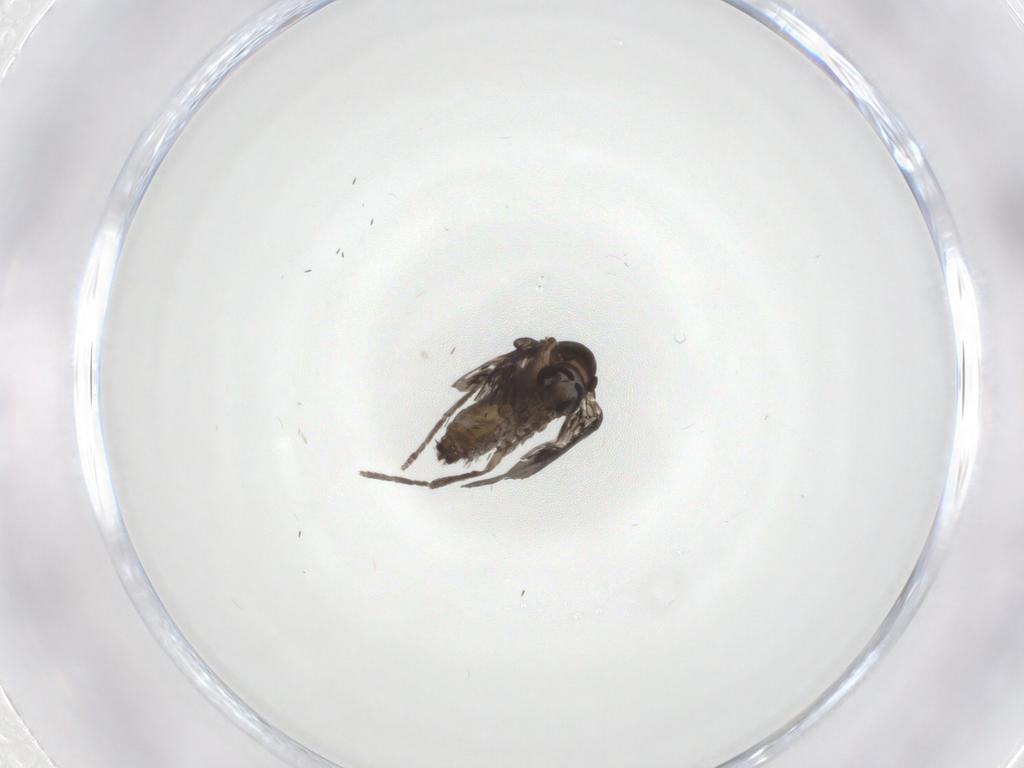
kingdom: Animalia
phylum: Arthropoda
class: Insecta
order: Diptera
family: Psychodidae
